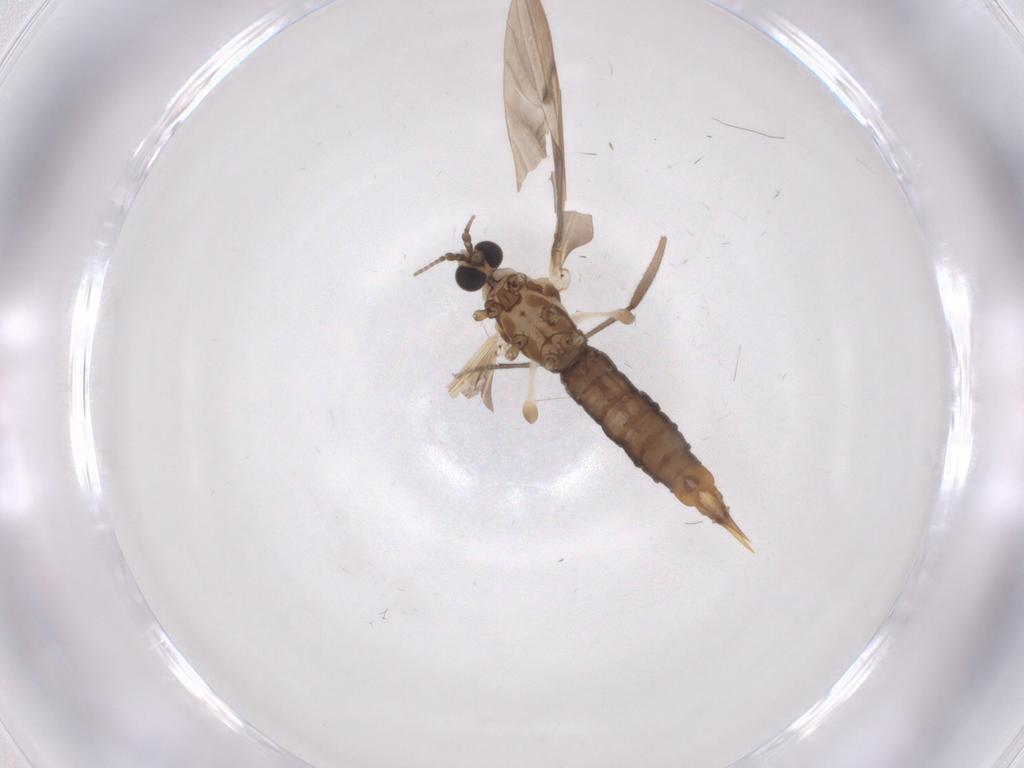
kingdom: Animalia
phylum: Arthropoda
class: Insecta
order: Diptera
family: Limoniidae
